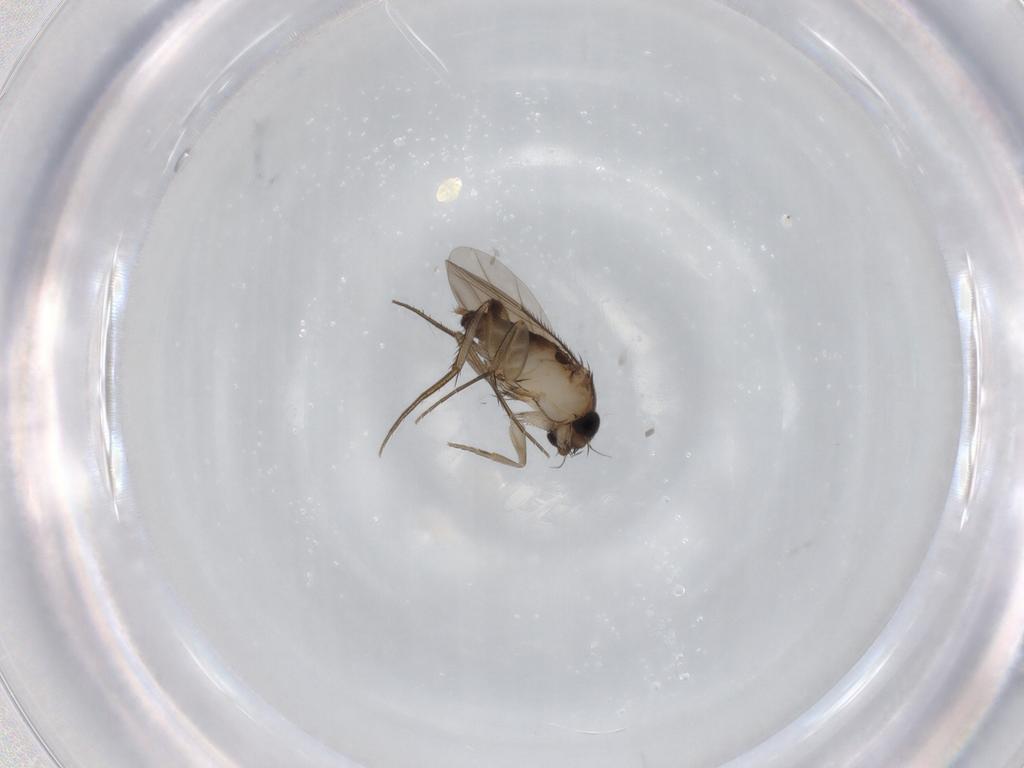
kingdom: Animalia
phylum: Arthropoda
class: Insecta
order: Diptera
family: Phoridae
